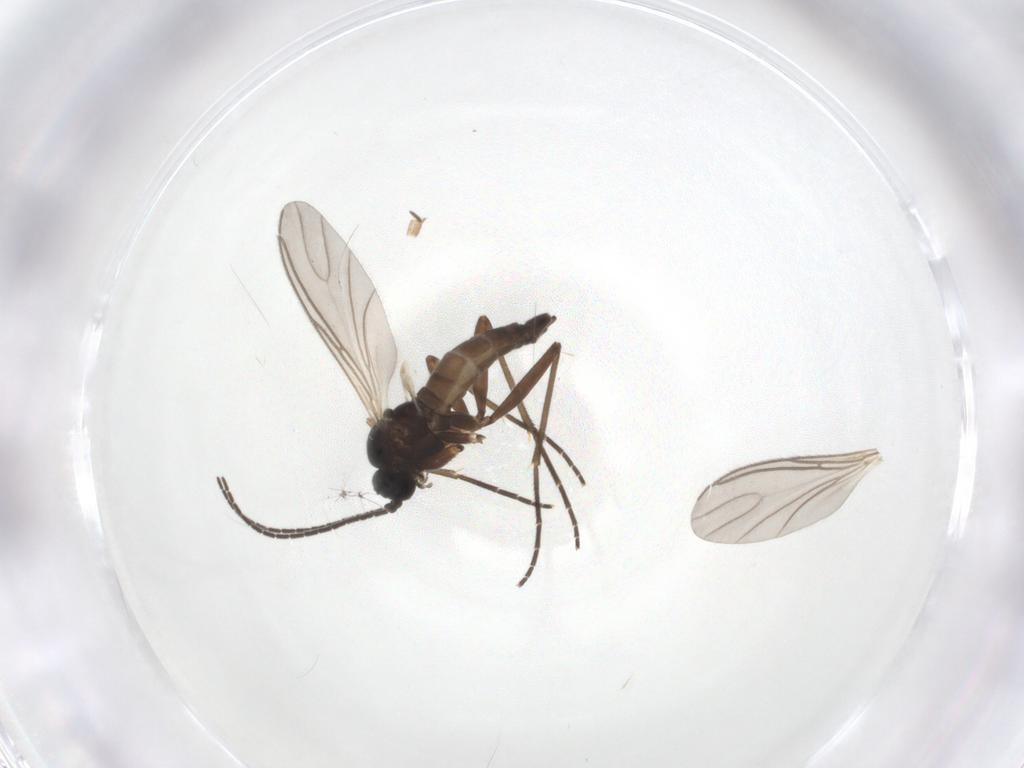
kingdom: Animalia
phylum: Arthropoda
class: Insecta
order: Diptera
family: Sciaridae
